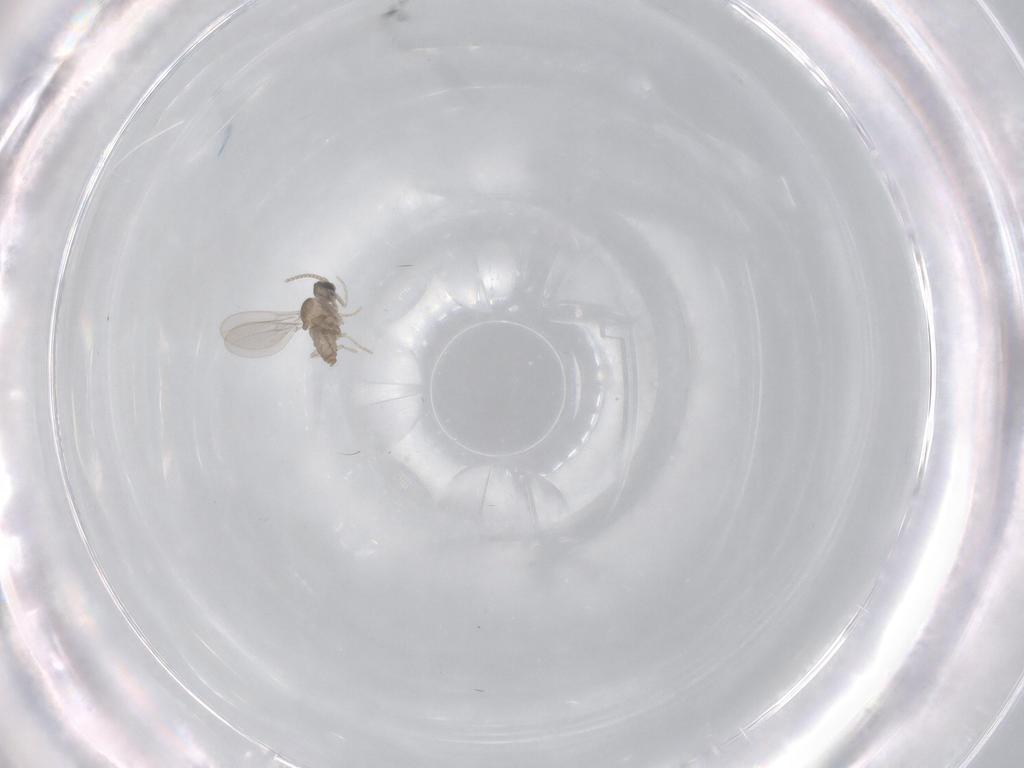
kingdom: Animalia
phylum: Arthropoda
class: Insecta
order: Diptera
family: Cecidomyiidae
